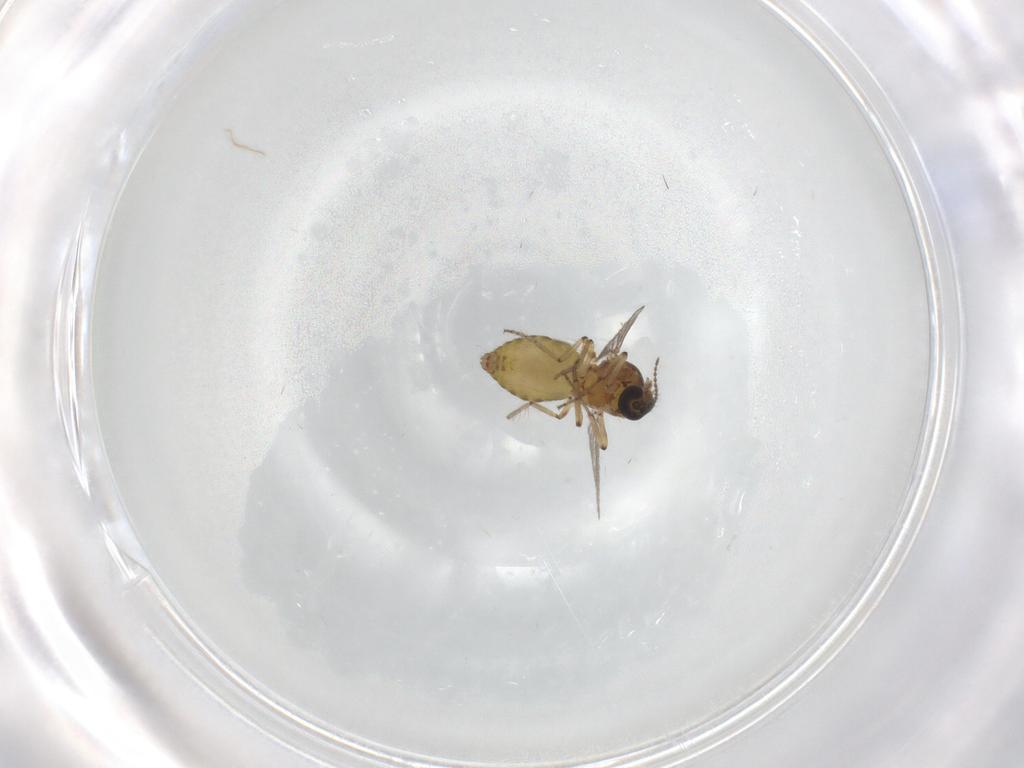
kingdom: Animalia
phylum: Arthropoda
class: Insecta
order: Diptera
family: Ceratopogonidae
